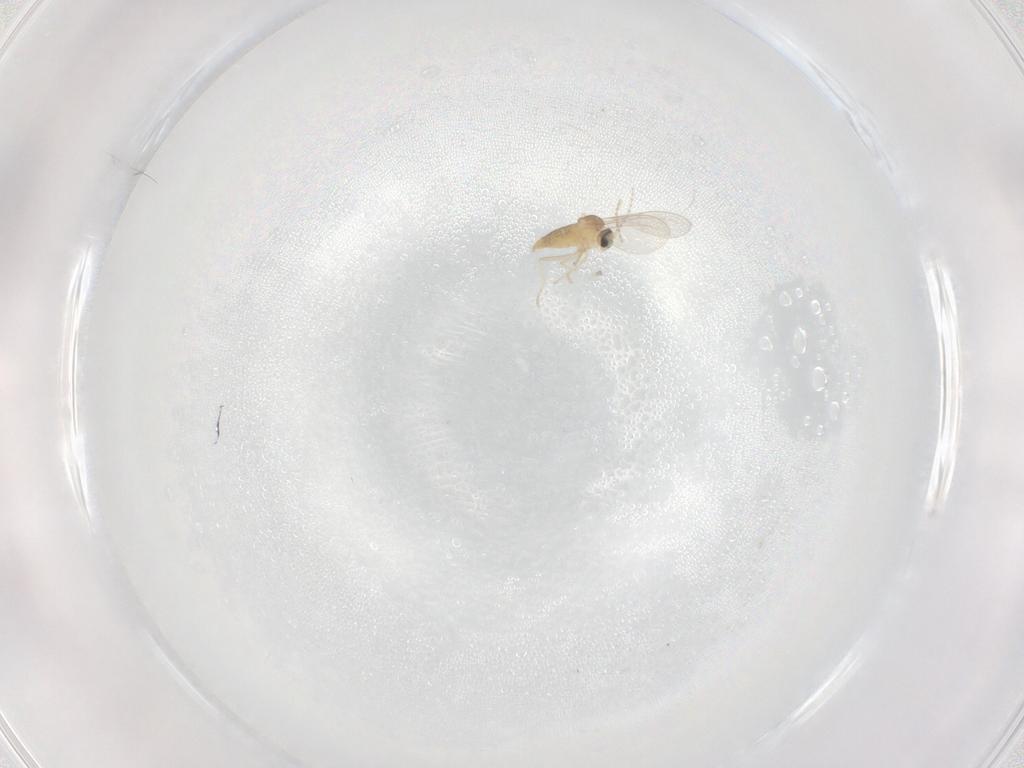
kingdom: Animalia
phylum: Arthropoda
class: Insecta
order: Diptera
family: Cecidomyiidae
